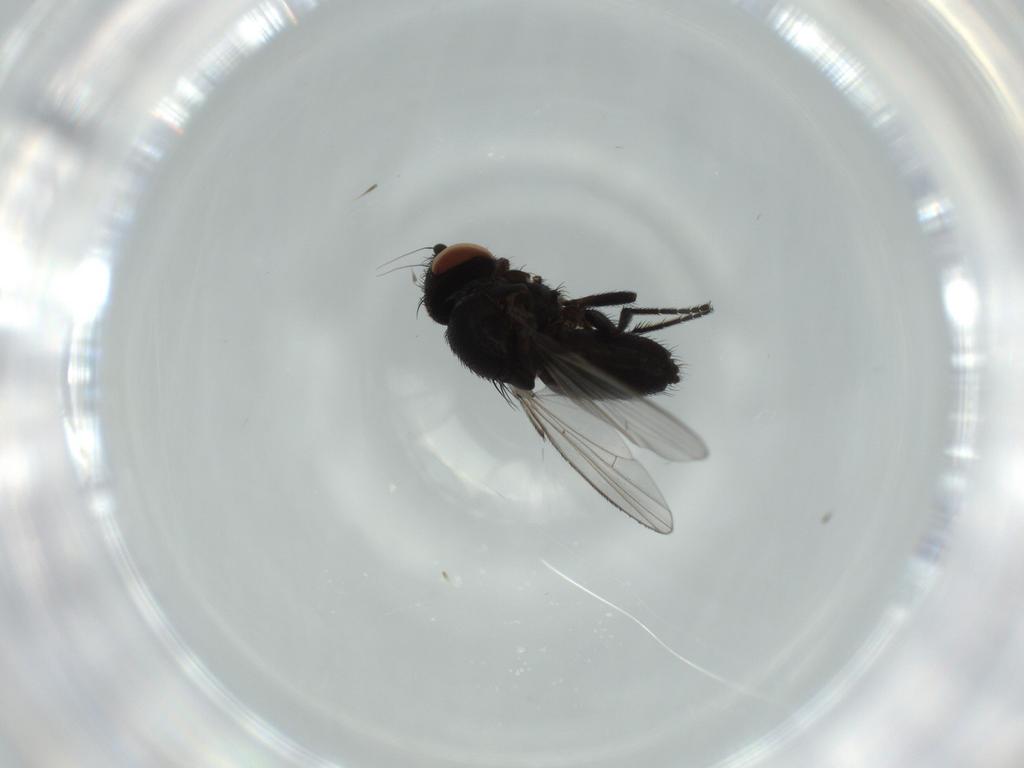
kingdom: Animalia
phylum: Arthropoda
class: Insecta
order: Diptera
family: Milichiidae
